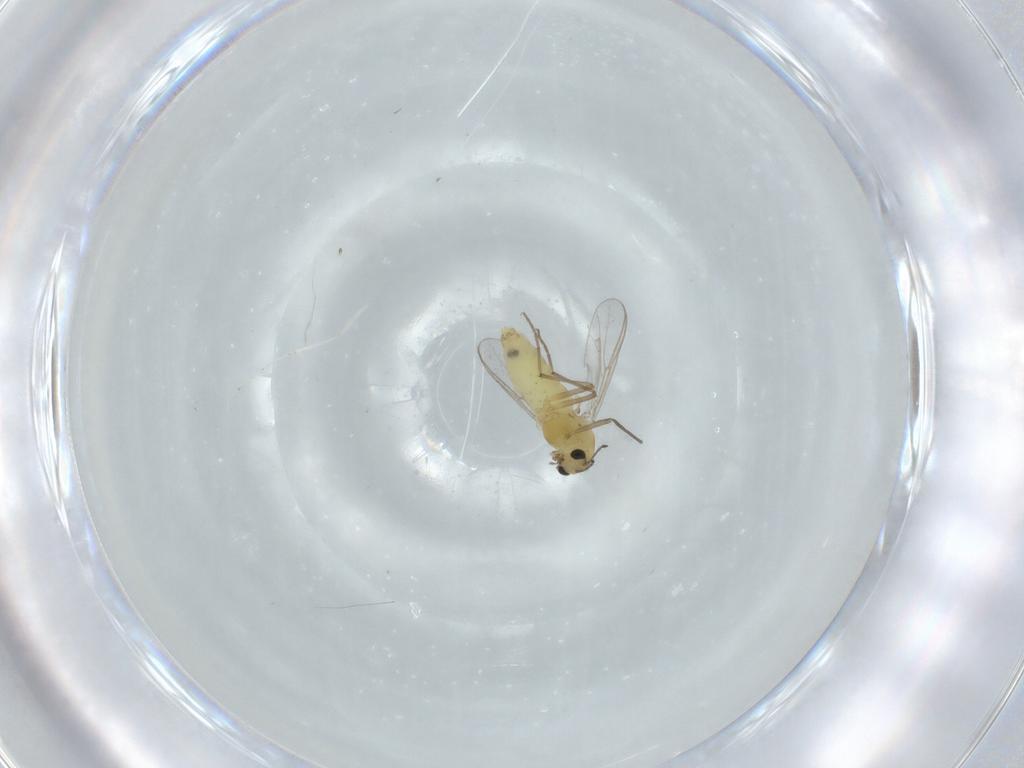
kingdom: Animalia
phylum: Arthropoda
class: Insecta
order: Diptera
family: Chironomidae
